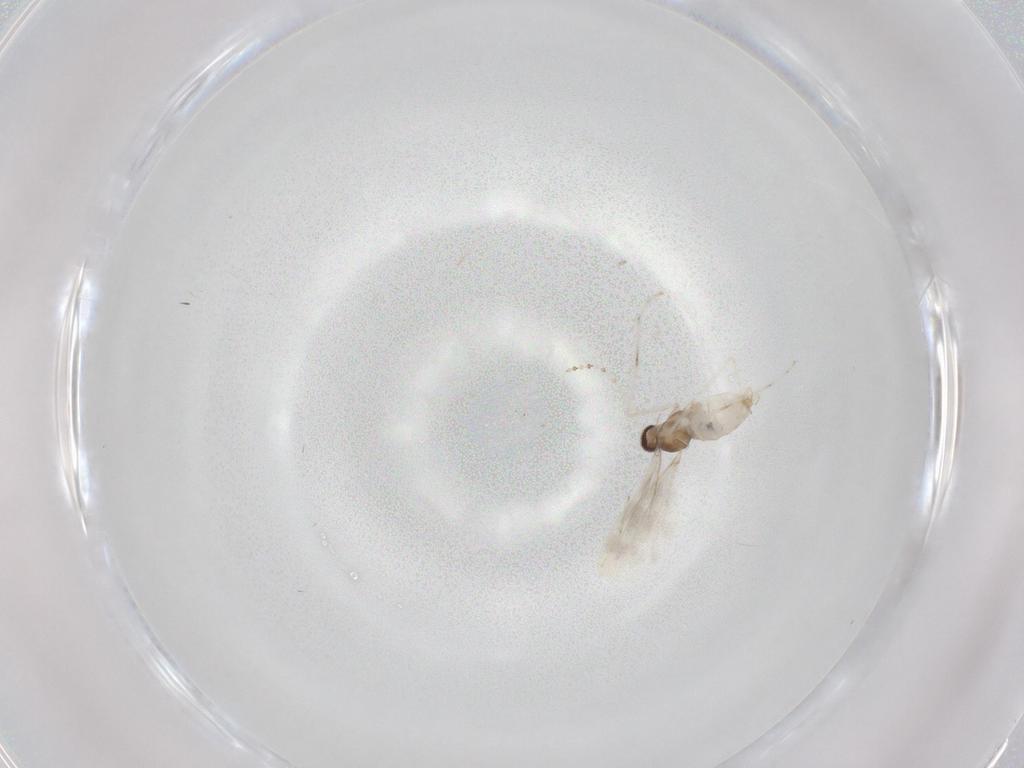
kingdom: Animalia
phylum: Arthropoda
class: Insecta
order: Diptera
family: Cecidomyiidae
